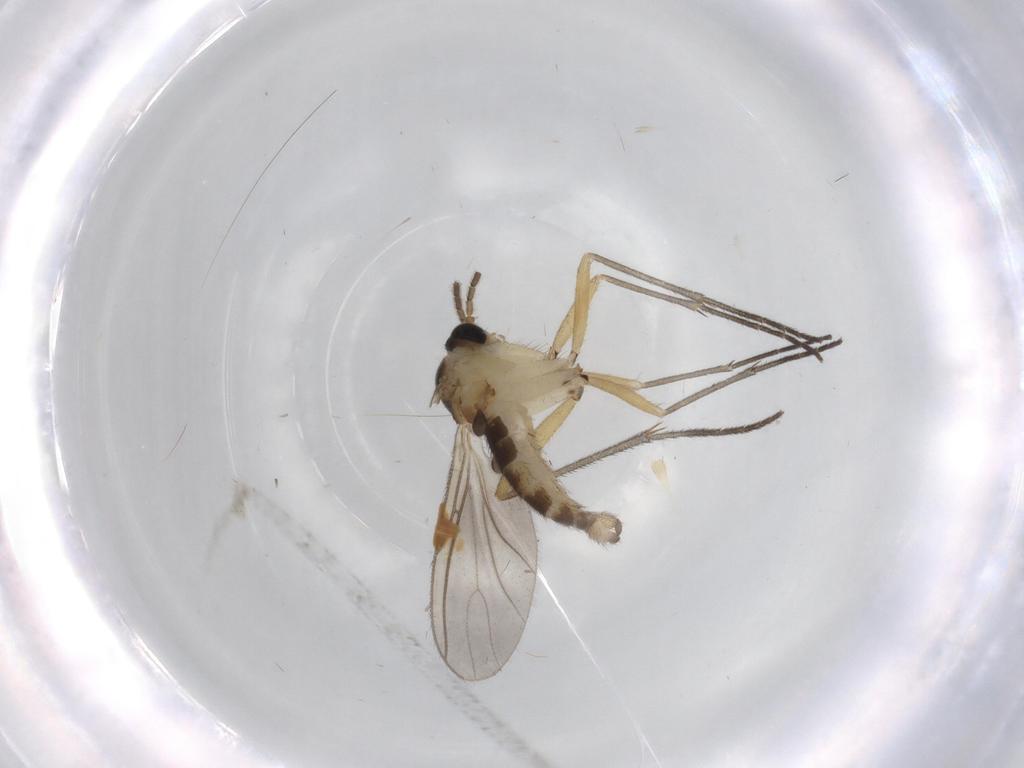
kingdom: Animalia
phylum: Arthropoda
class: Insecta
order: Diptera
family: Sciaridae
